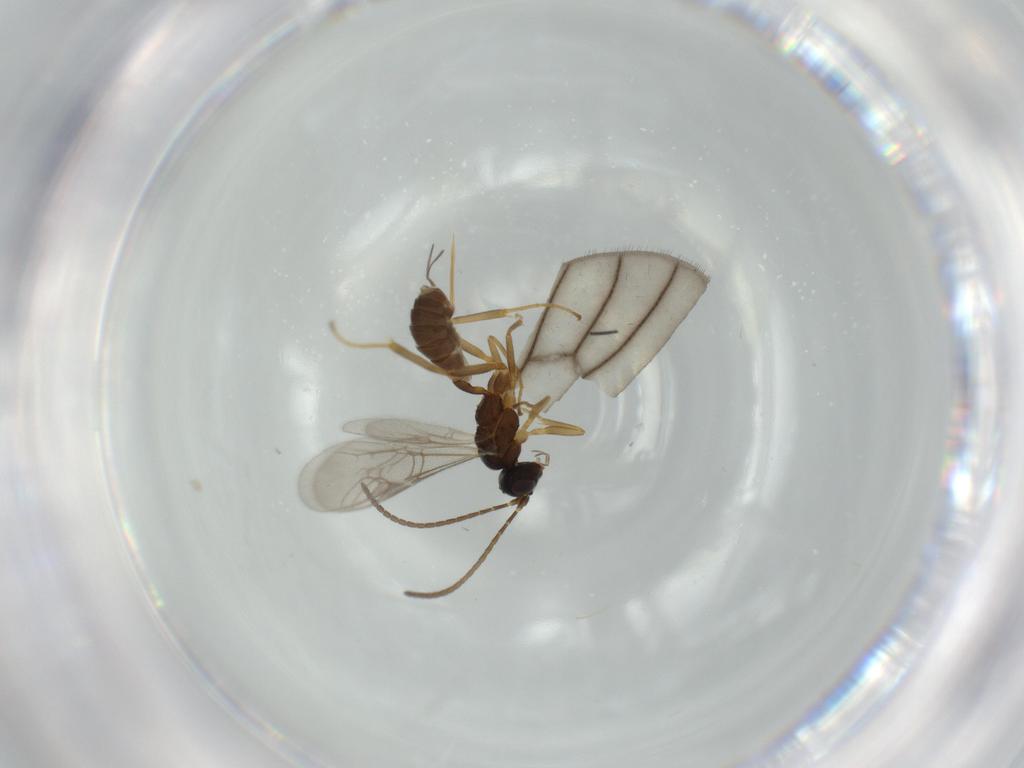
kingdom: Animalia
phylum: Arthropoda
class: Insecta
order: Hymenoptera
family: Ichneumonidae
